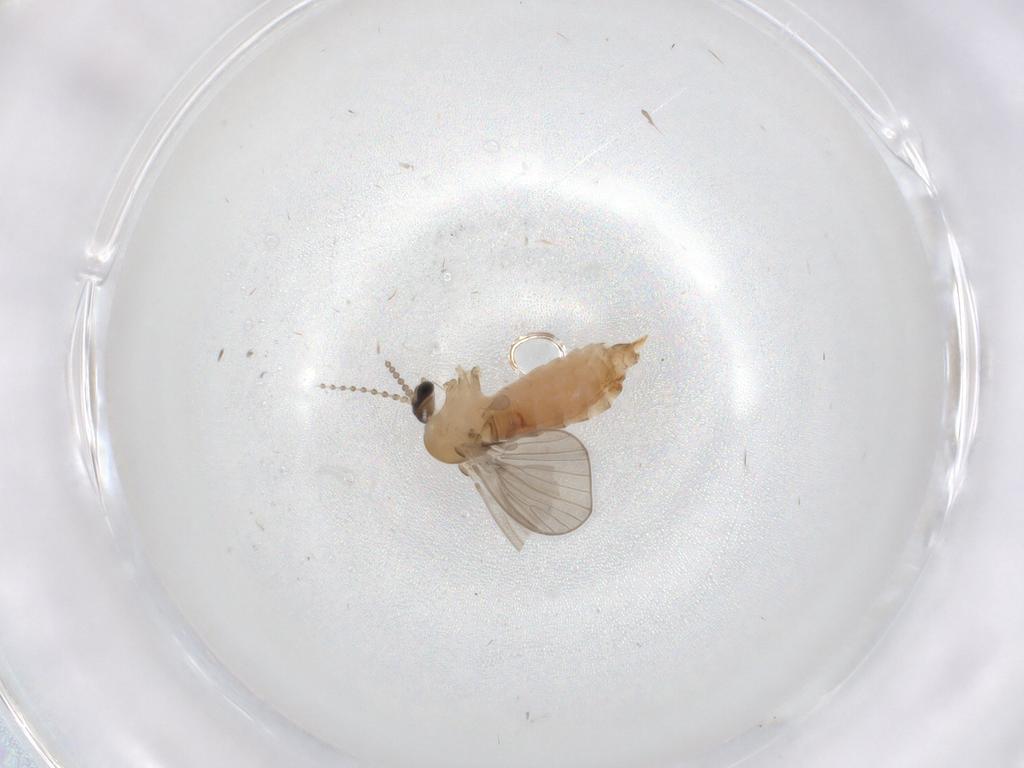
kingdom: Animalia
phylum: Arthropoda
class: Insecta
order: Diptera
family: Psychodidae
